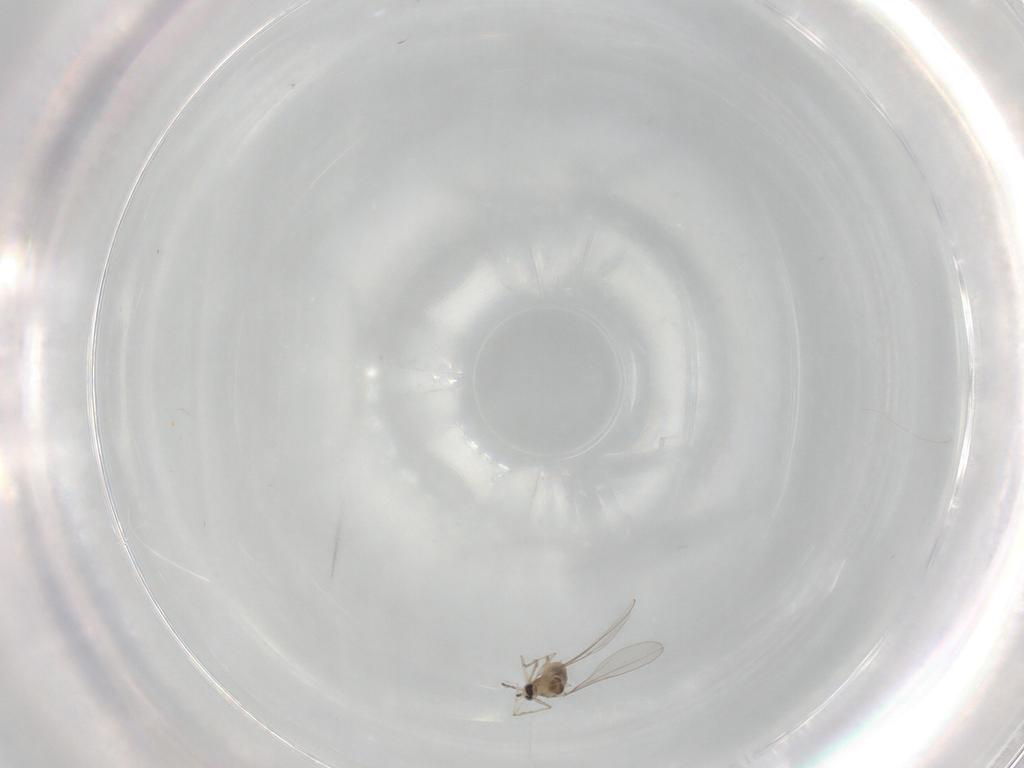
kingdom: Animalia
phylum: Arthropoda
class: Insecta
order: Diptera
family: Cecidomyiidae
